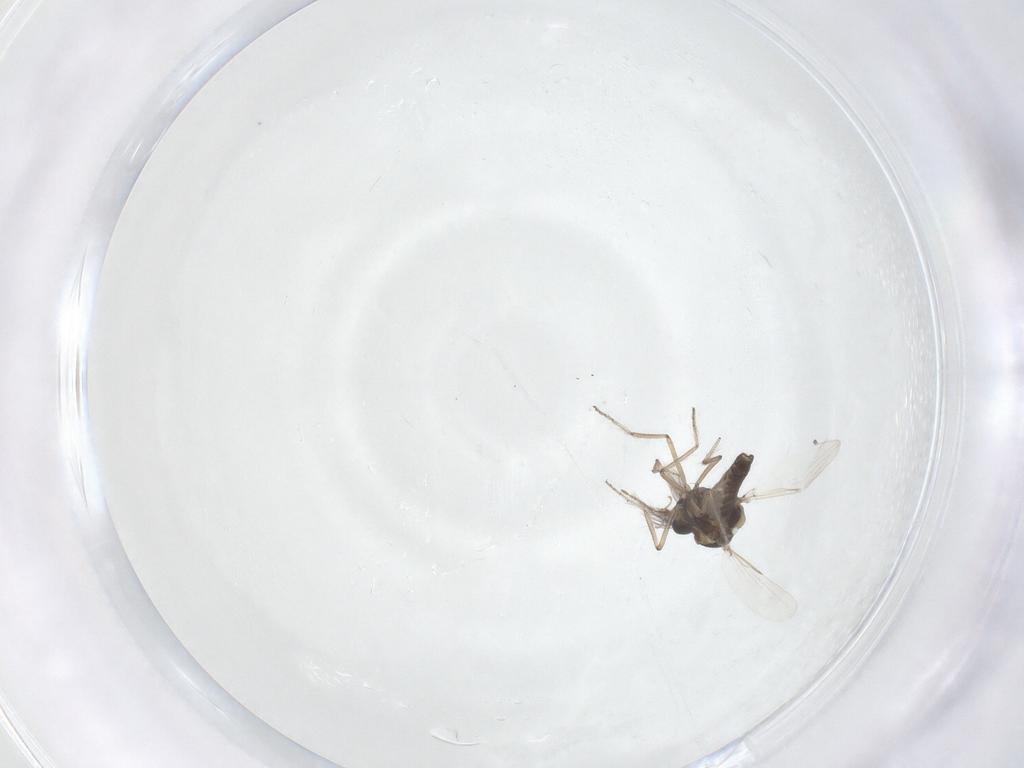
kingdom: Animalia
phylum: Arthropoda
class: Insecta
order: Diptera
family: Ceratopogonidae
